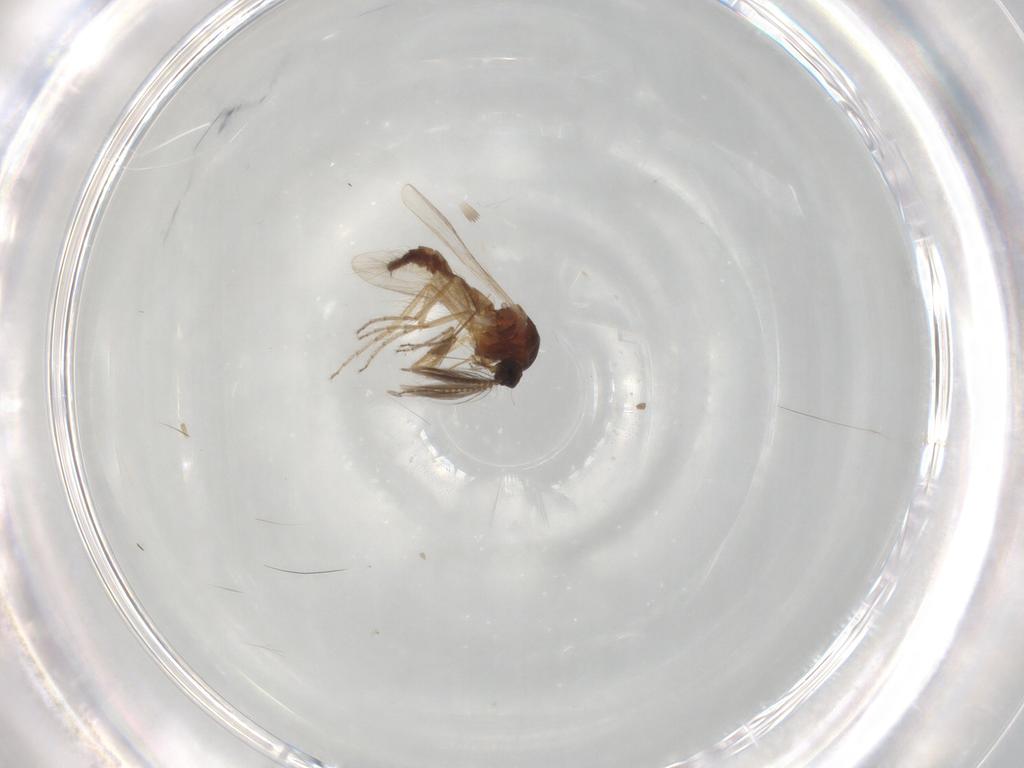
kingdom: Animalia
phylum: Arthropoda
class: Insecta
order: Diptera
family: Ceratopogonidae
